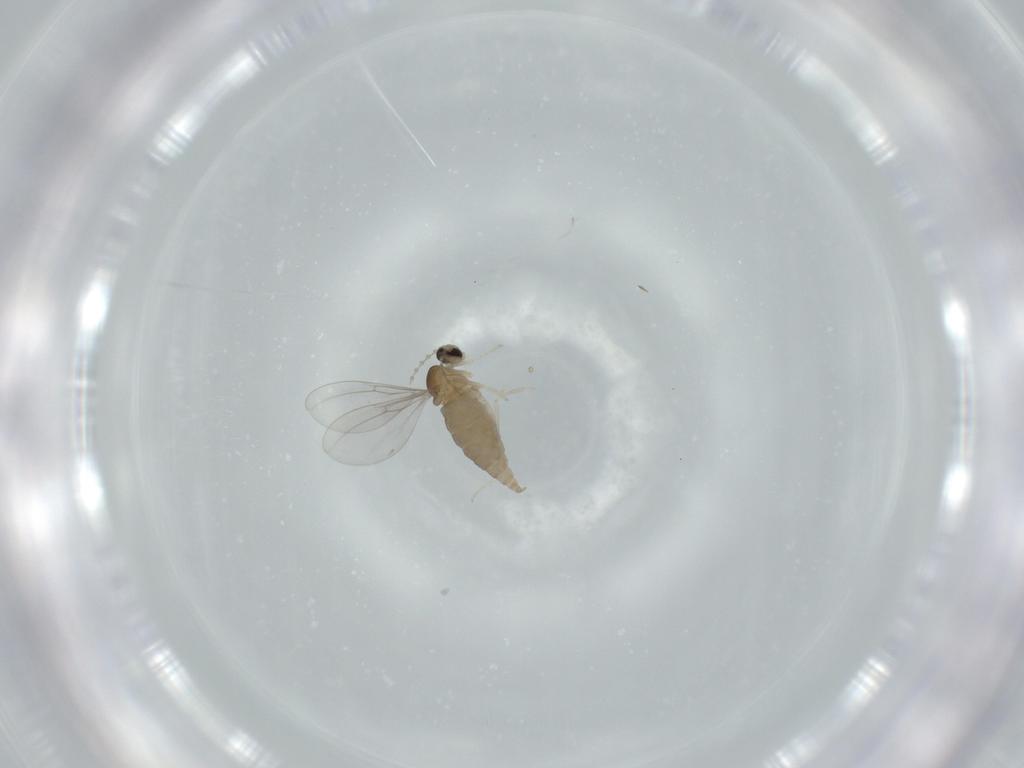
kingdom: Animalia
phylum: Arthropoda
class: Insecta
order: Diptera
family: Cecidomyiidae
